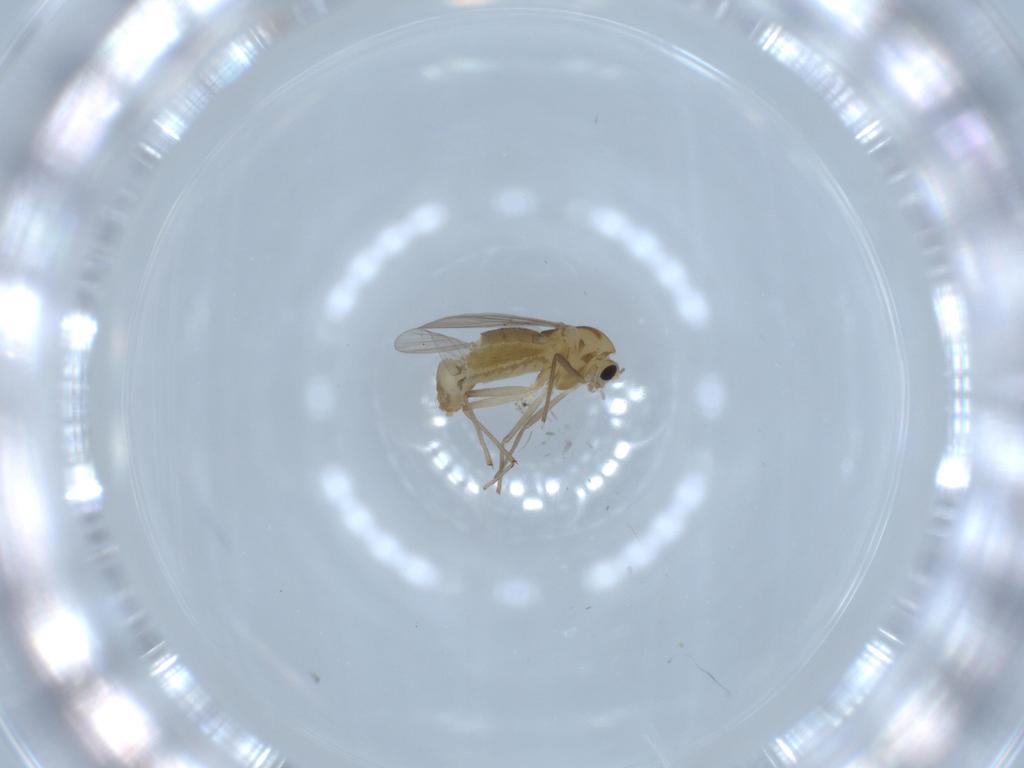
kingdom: Animalia
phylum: Arthropoda
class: Insecta
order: Diptera
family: Chironomidae
